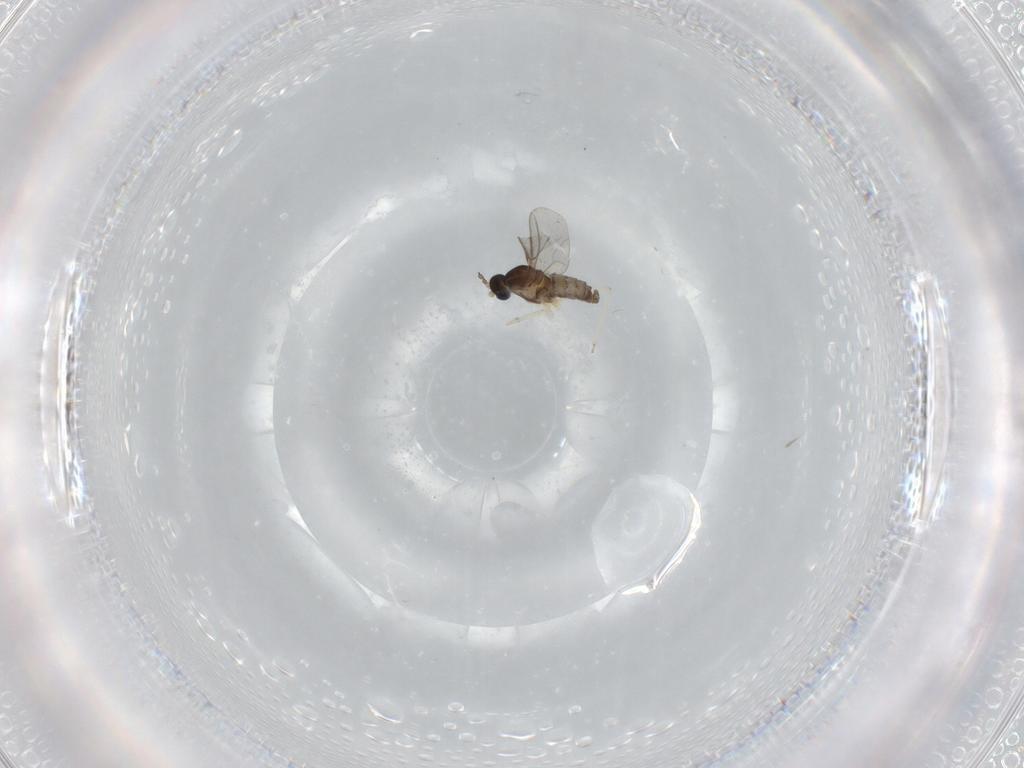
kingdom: Animalia
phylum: Arthropoda
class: Insecta
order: Diptera
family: Cecidomyiidae
